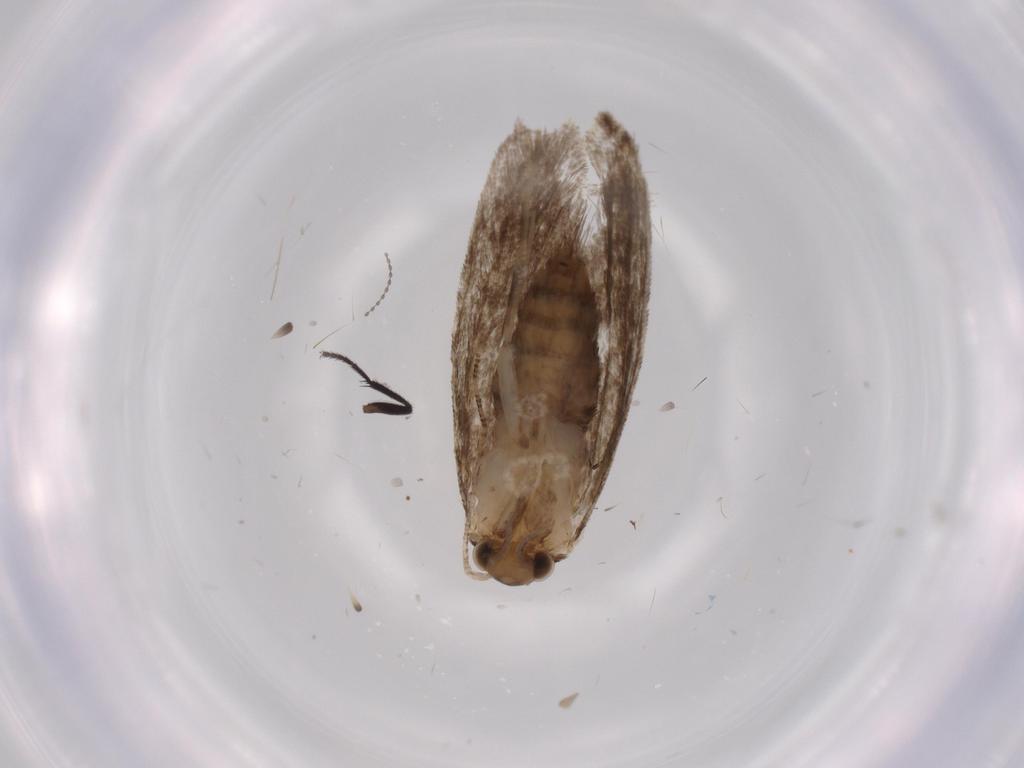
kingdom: Animalia
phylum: Arthropoda
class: Insecta
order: Lepidoptera
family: Tineidae
